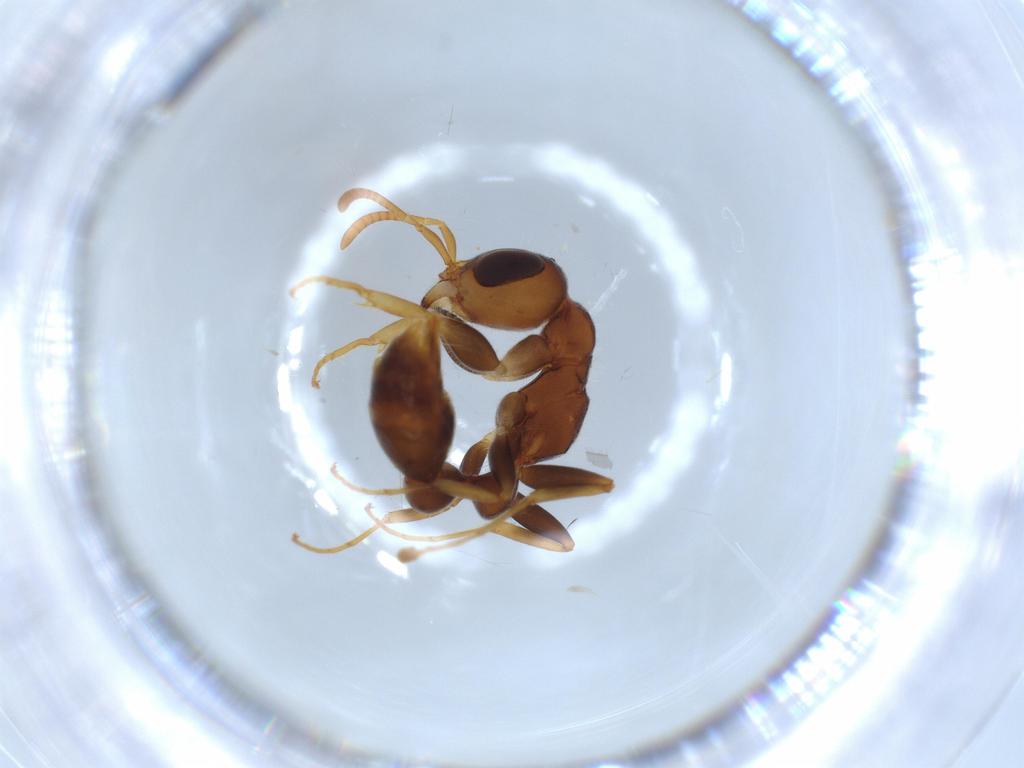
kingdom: Animalia
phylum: Arthropoda
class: Insecta
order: Hymenoptera
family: Formicidae
